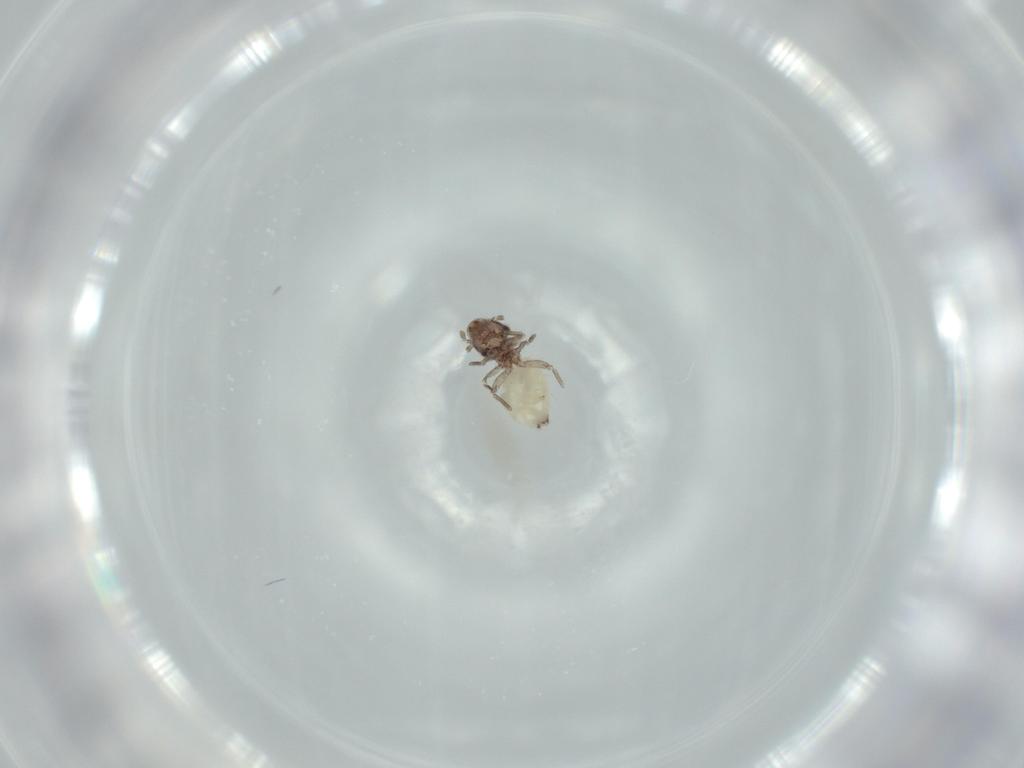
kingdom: Animalia
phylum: Arthropoda
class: Insecta
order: Psocodea
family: Lepidopsocidae
